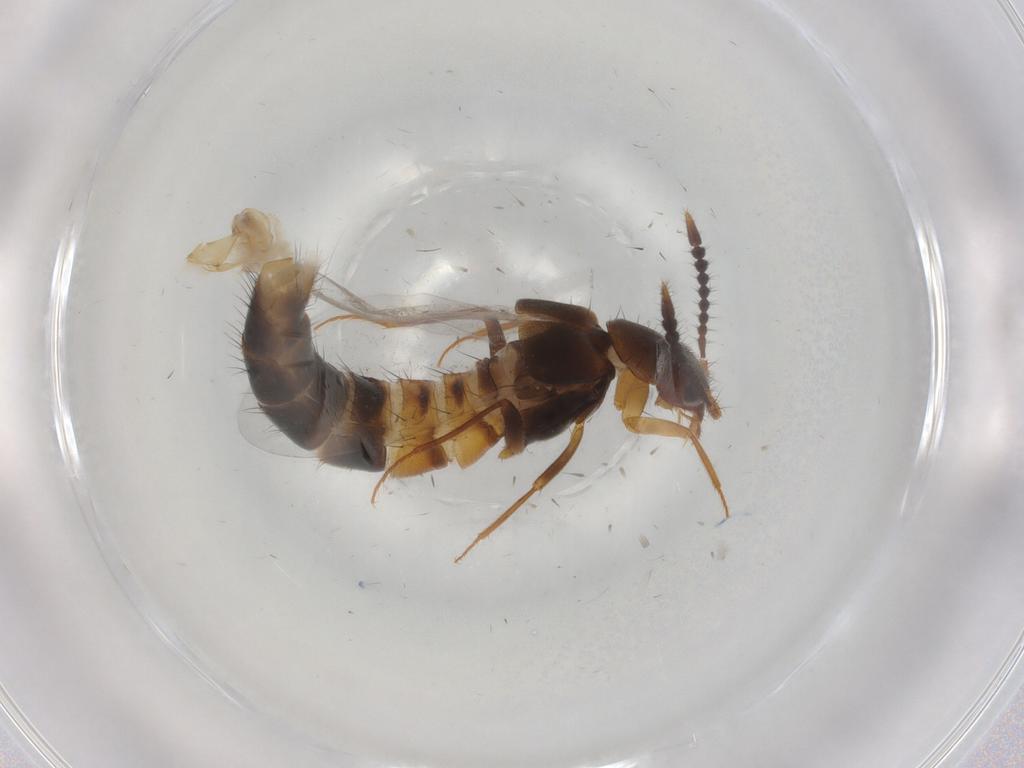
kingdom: Animalia
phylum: Arthropoda
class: Insecta
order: Coleoptera
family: Staphylinidae
